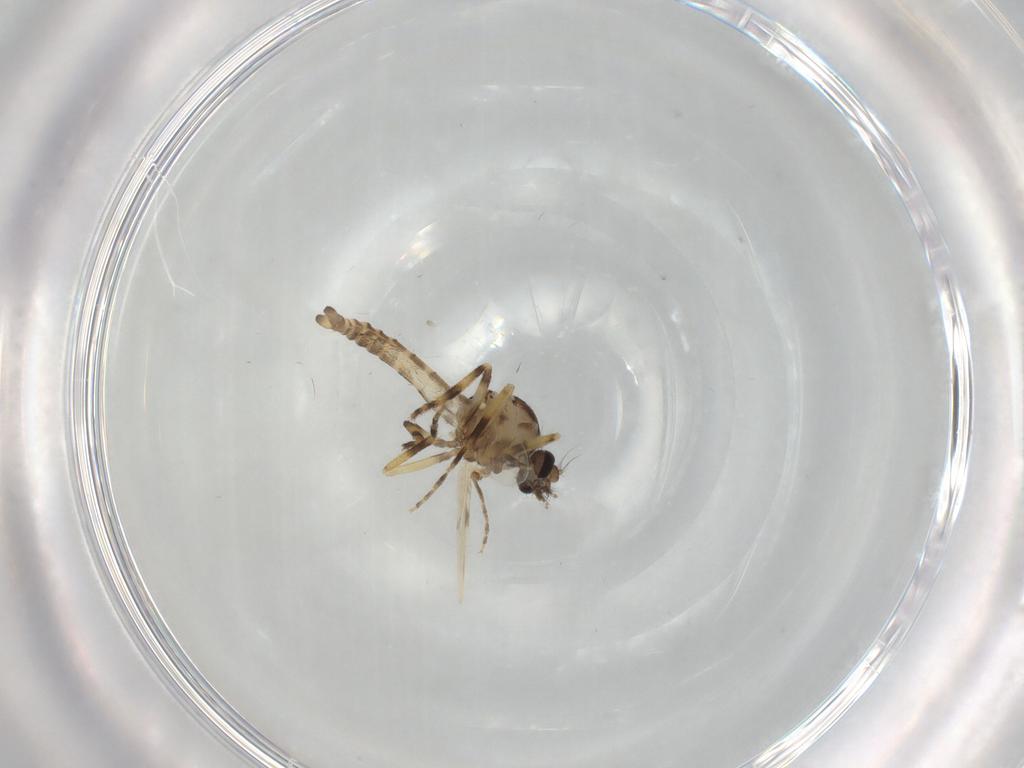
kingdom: Animalia
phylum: Arthropoda
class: Insecta
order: Diptera
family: Ceratopogonidae
